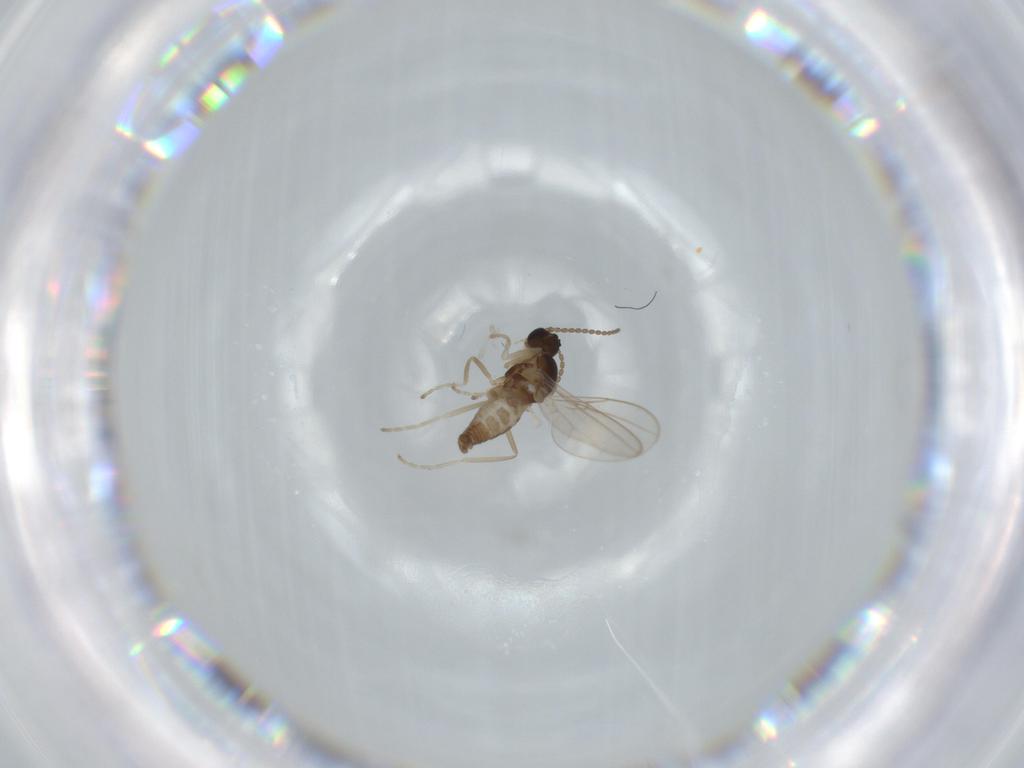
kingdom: Animalia
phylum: Arthropoda
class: Insecta
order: Diptera
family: Cecidomyiidae
